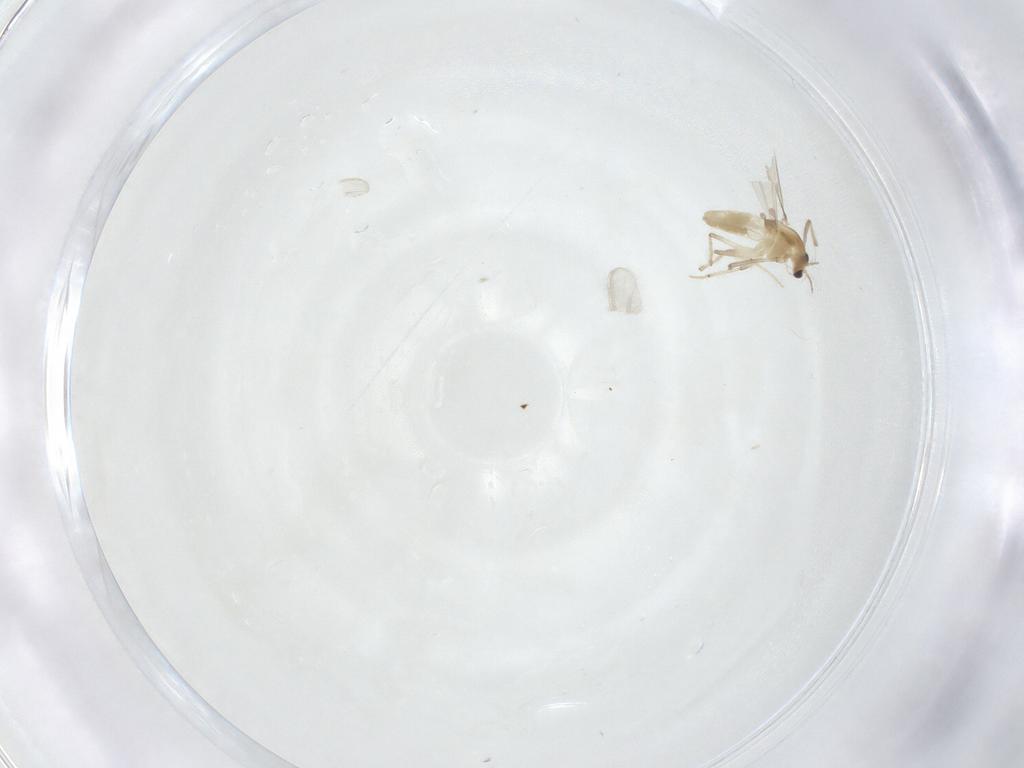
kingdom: Animalia
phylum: Arthropoda
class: Insecta
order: Diptera
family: Chironomidae
